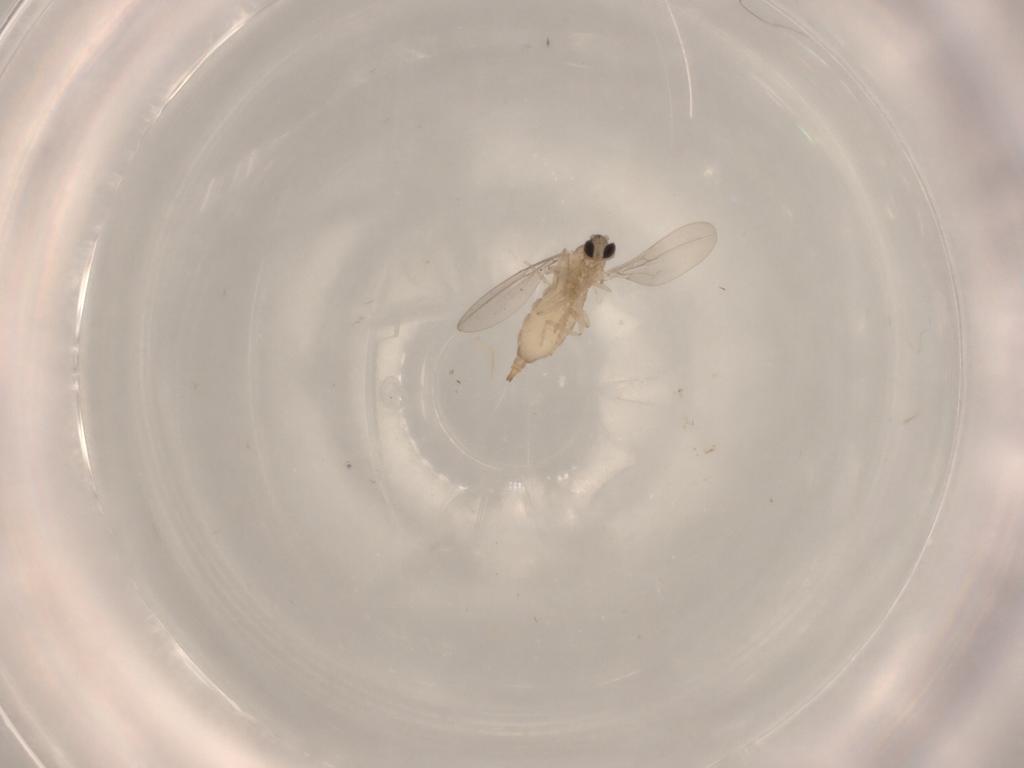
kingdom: Animalia
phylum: Arthropoda
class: Insecta
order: Diptera
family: Cecidomyiidae
